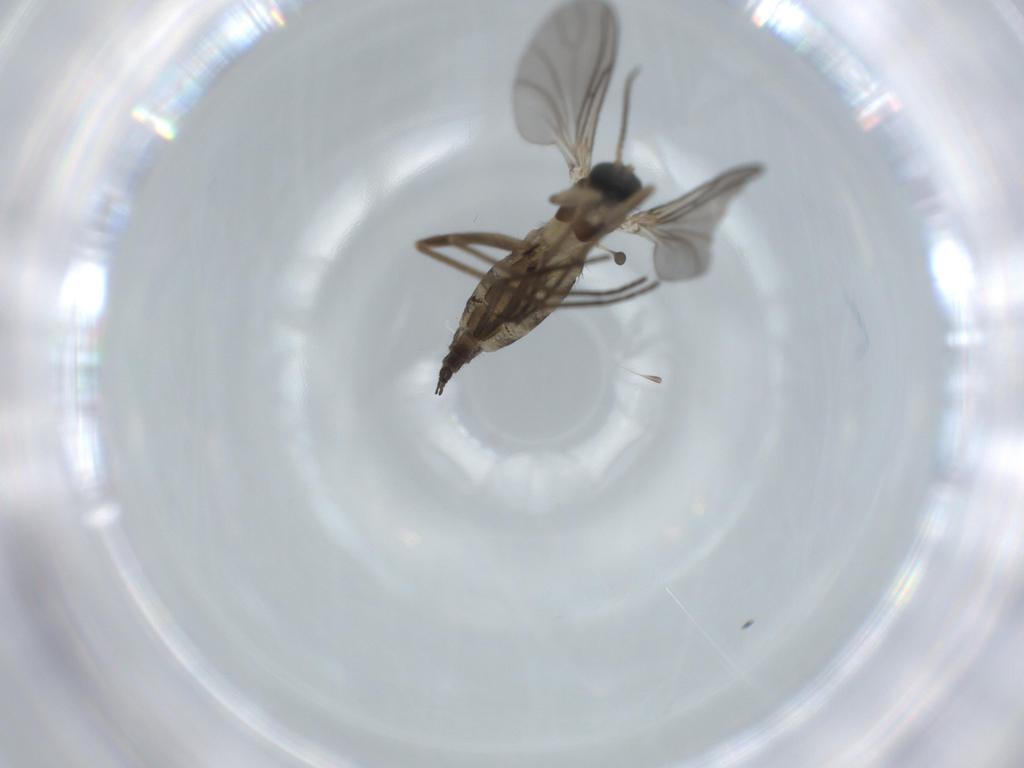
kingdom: Animalia
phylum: Arthropoda
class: Insecta
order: Diptera
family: Sciaridae
